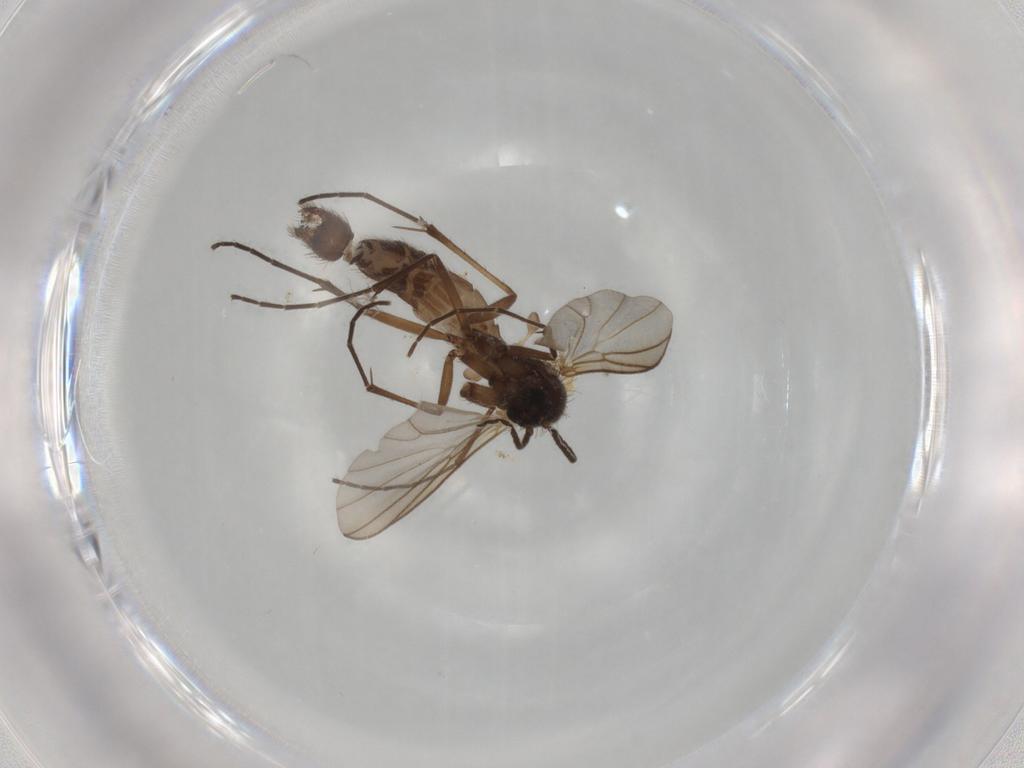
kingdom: Animalia
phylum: Arthropoda
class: Insecta
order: Diptera
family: Mycetophilidae
